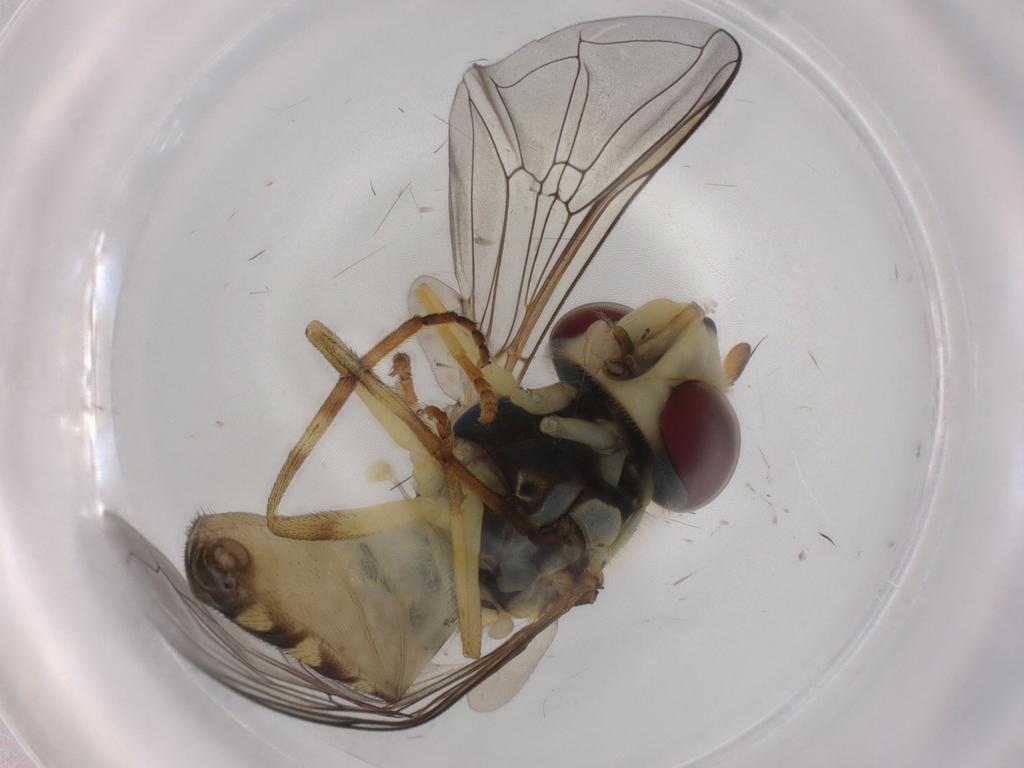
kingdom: Animalia
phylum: Arthropoda
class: Insecta
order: Diptera
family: Syrphidae
